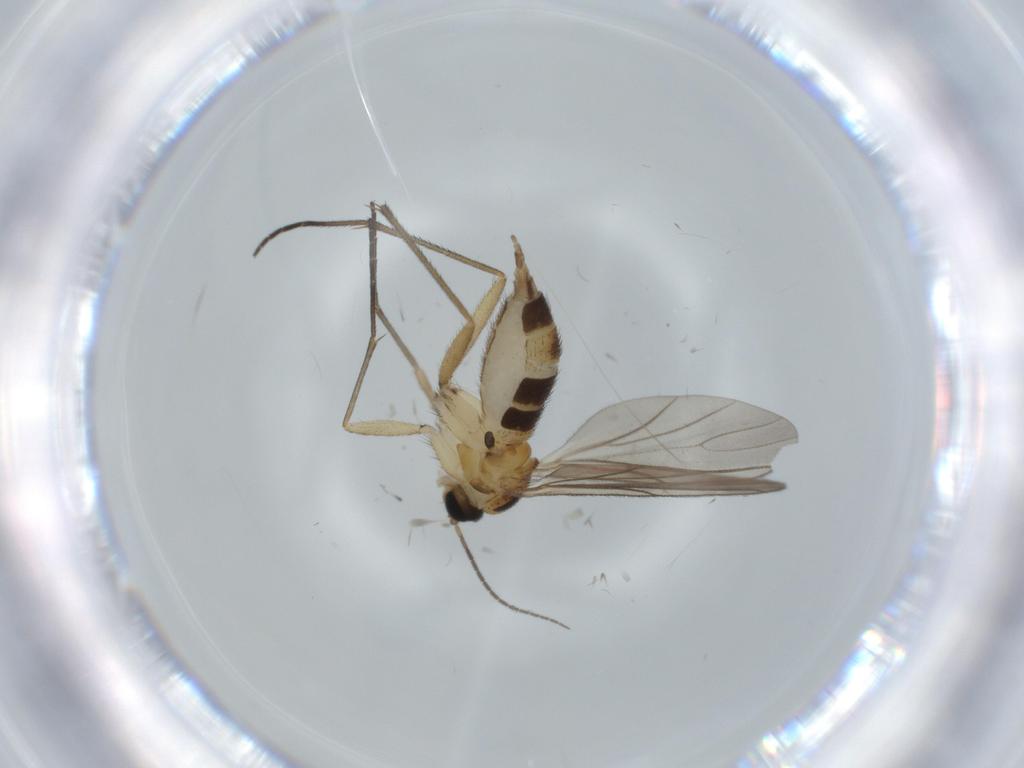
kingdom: Animalia
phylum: Arthropoda
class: Insecta
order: Diptera
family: Sciaridae
